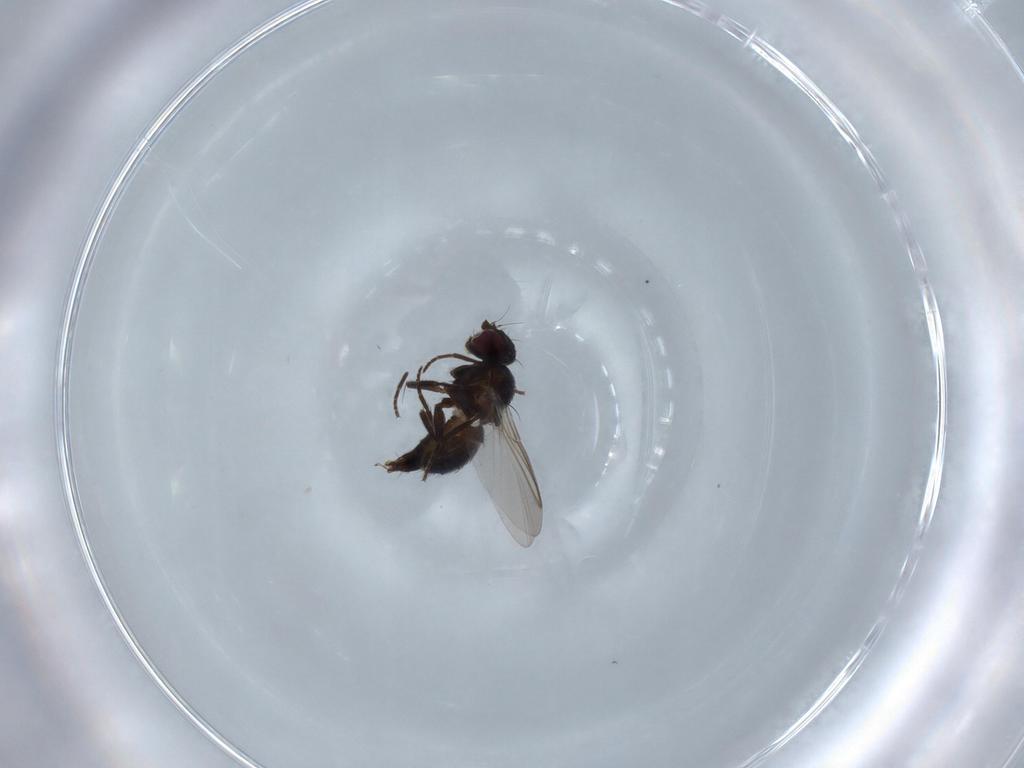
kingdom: Animalia
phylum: Arthropoda
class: Insecta
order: Diptera
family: Agromyzidae
